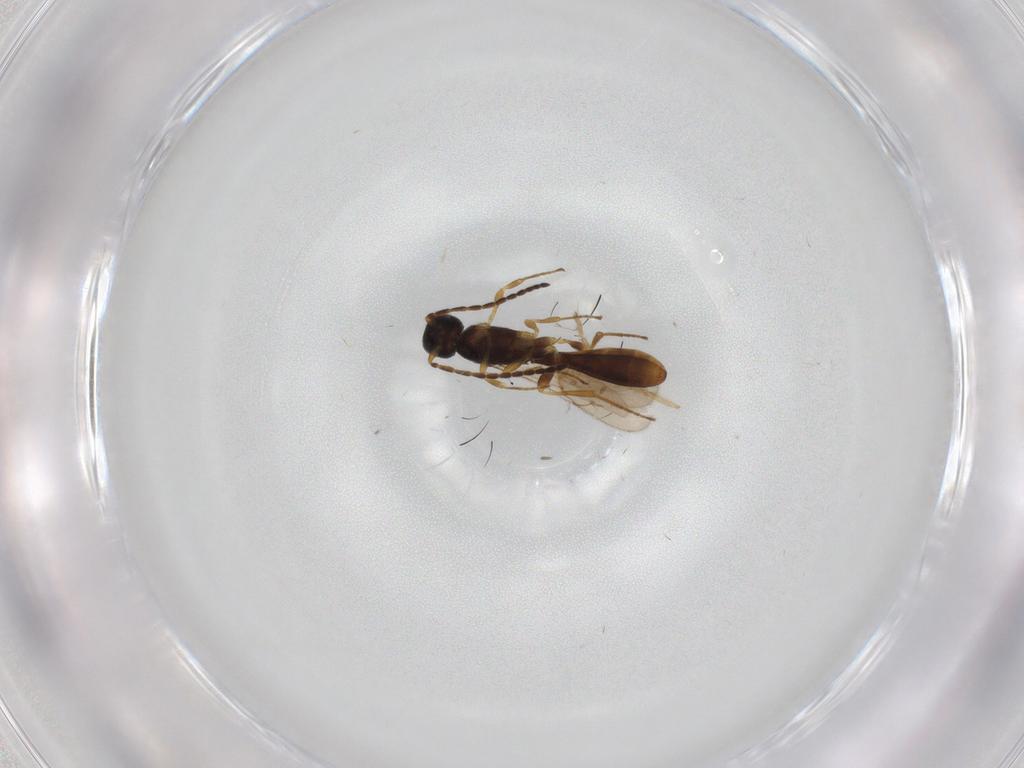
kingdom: Animalia
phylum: Arthropoda
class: Insecta
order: Hymenoptera
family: Scelionidae
